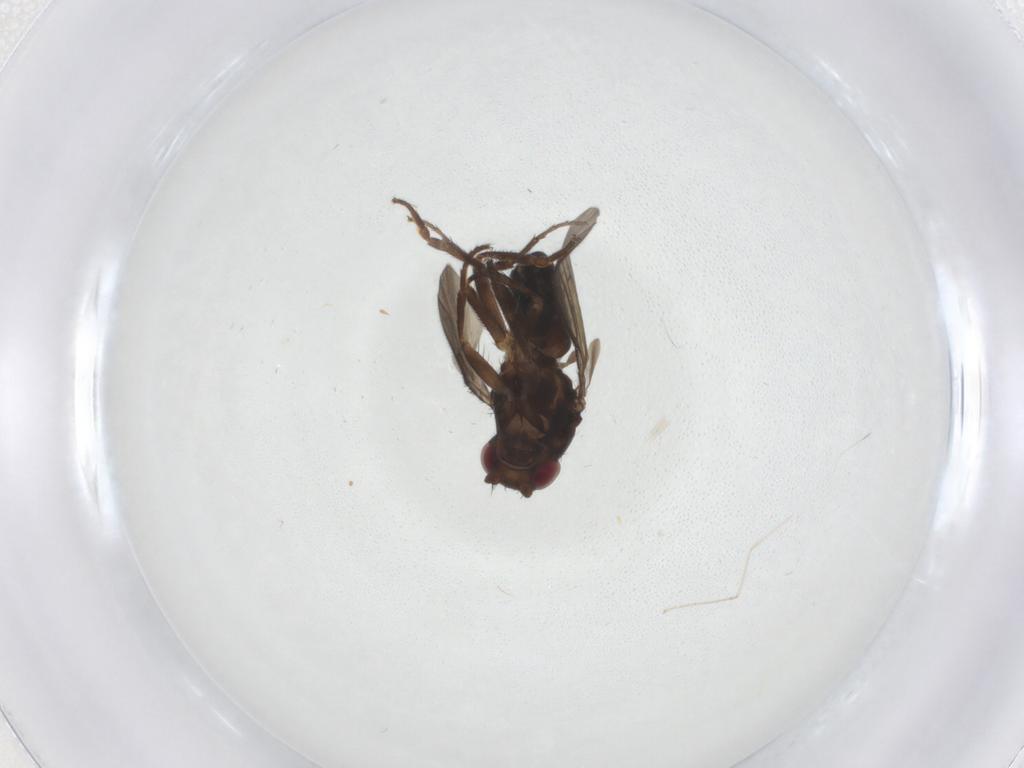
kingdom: Animalia
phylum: Arthropoda
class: Insecta
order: Diptera
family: Sphaeroceridae
